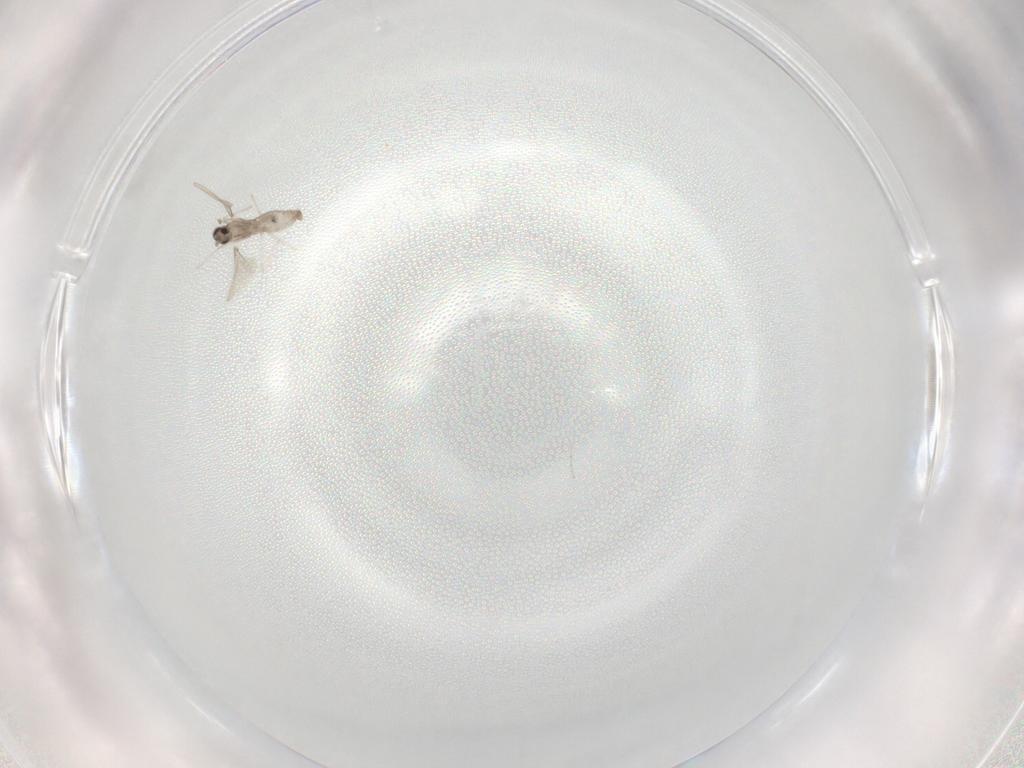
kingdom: Animalia
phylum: Arthropoda
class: Insecta
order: Diptera
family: Cecidomyiidae
